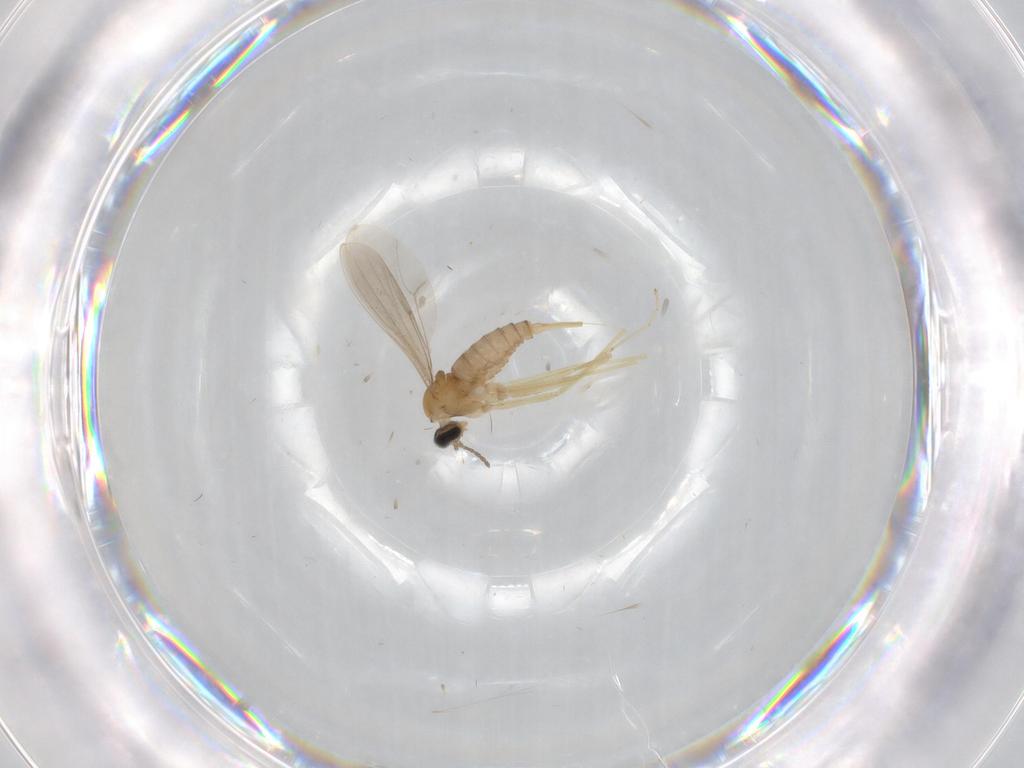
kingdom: Animalia
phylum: Arthropoda
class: Insecta
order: Diptera
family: Cecidomyiidae
